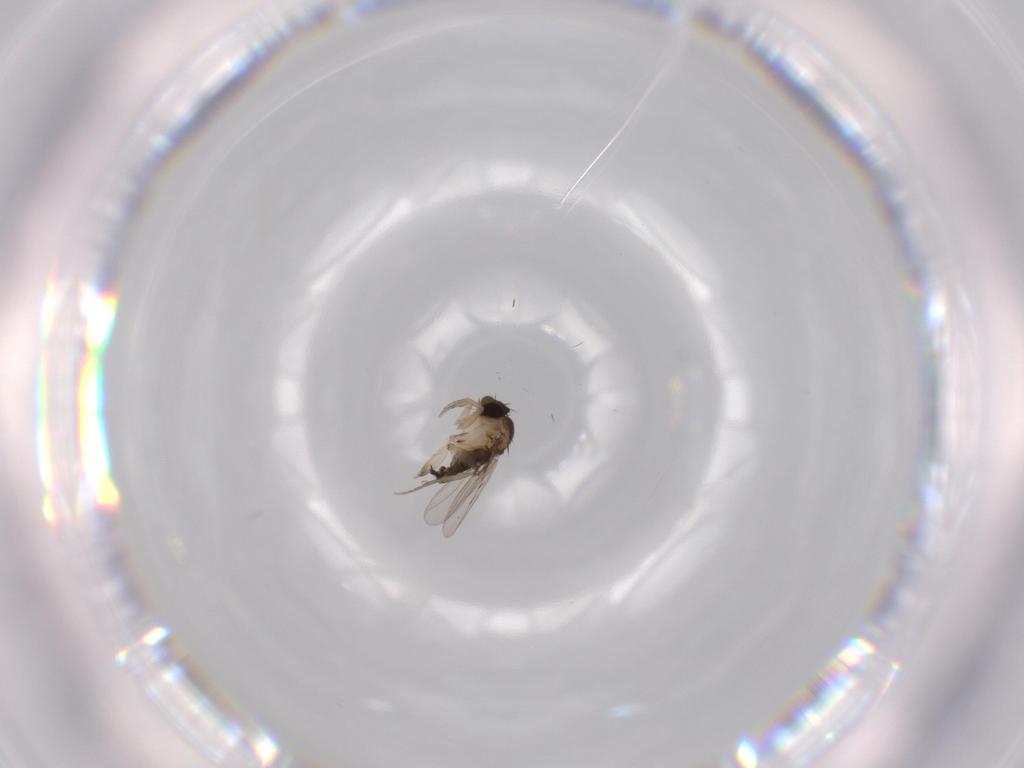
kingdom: Animalia
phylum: Arthropoda
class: Insecta
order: Diptera
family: Phoridae
